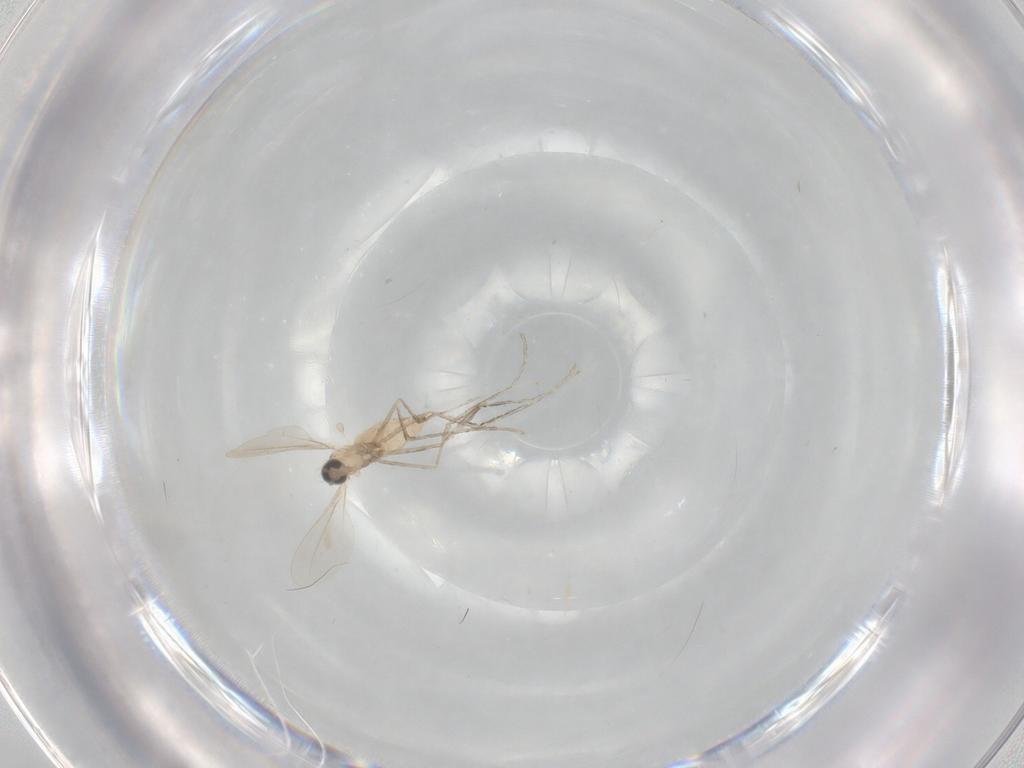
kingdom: Animalia
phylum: Arthropoda
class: Insecta
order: Diptera
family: Cecidomyiidae
